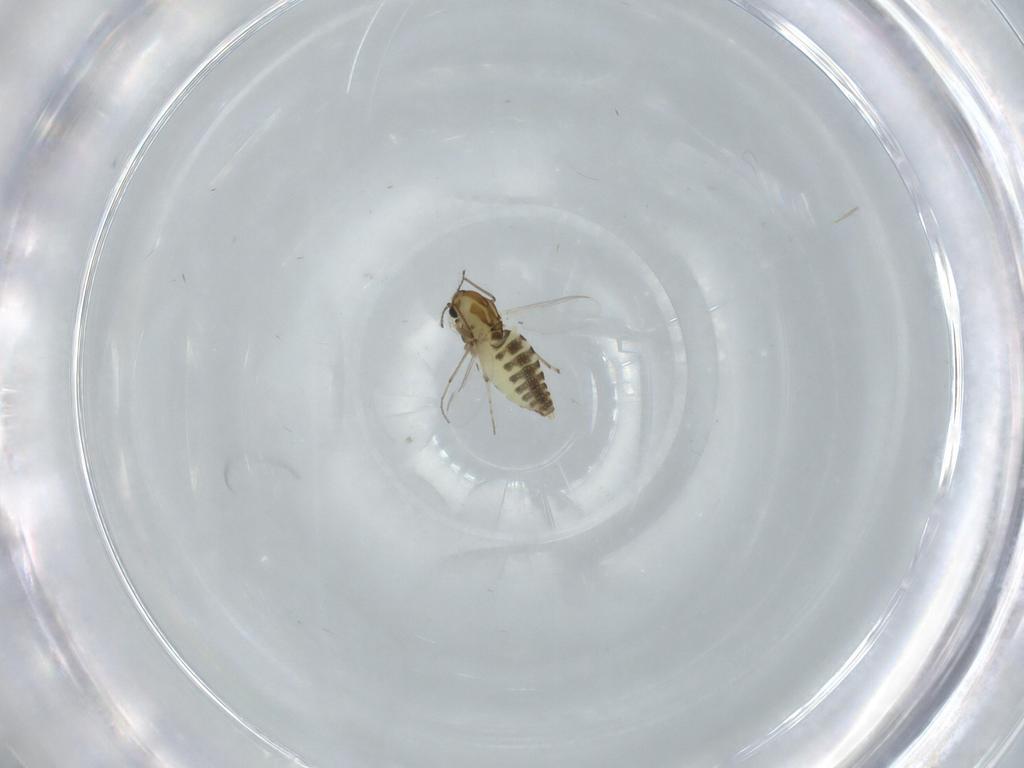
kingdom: Animalia
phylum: Arthropoda
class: Insecta
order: Diptera
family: Chironomidae
